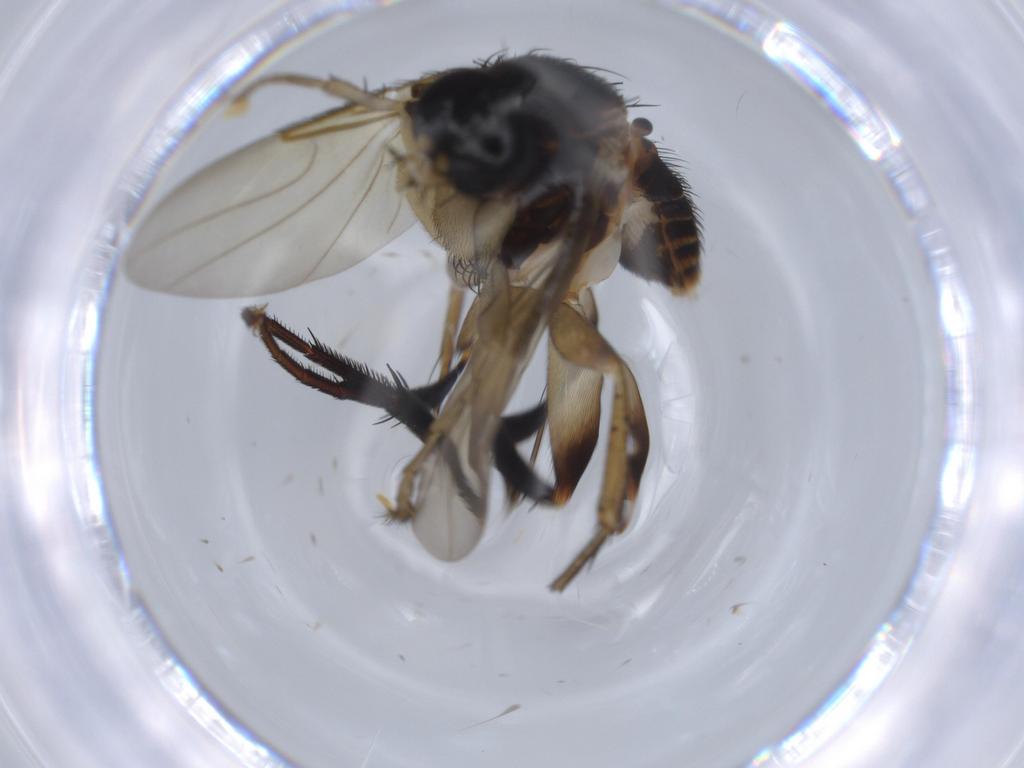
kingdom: Animalia
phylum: Arthropoda
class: Insecta
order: Diptera
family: Phoridae
